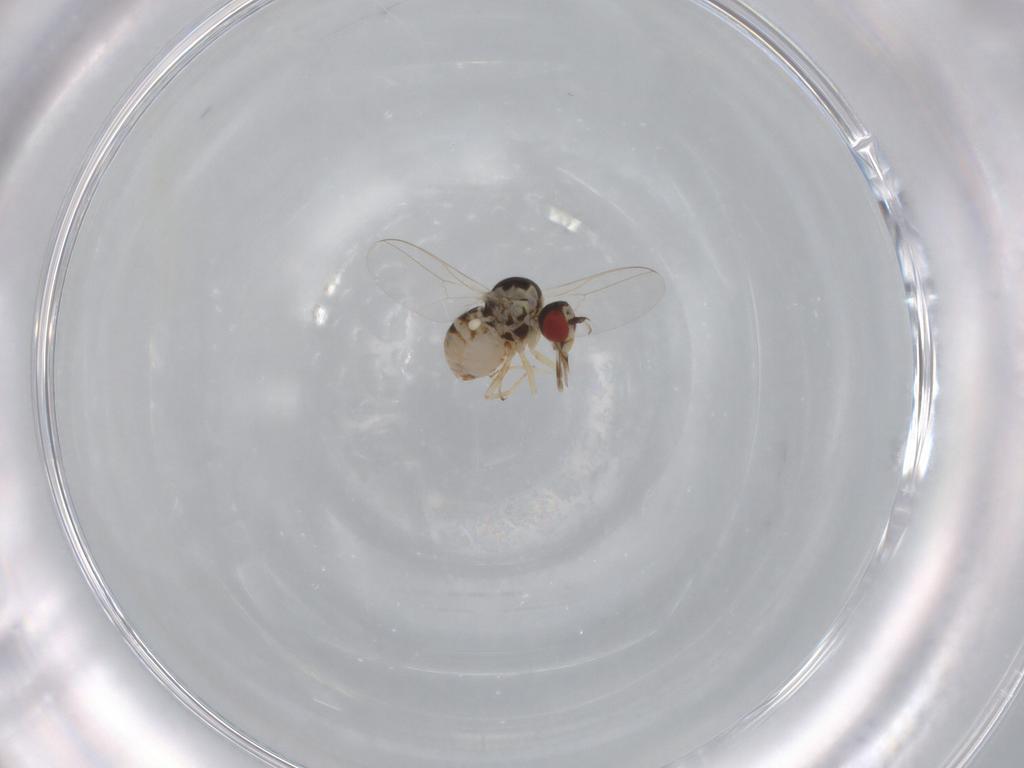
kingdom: Animalia
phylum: Arthropoda
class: Insecta
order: Diptera
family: Bombyliidae
